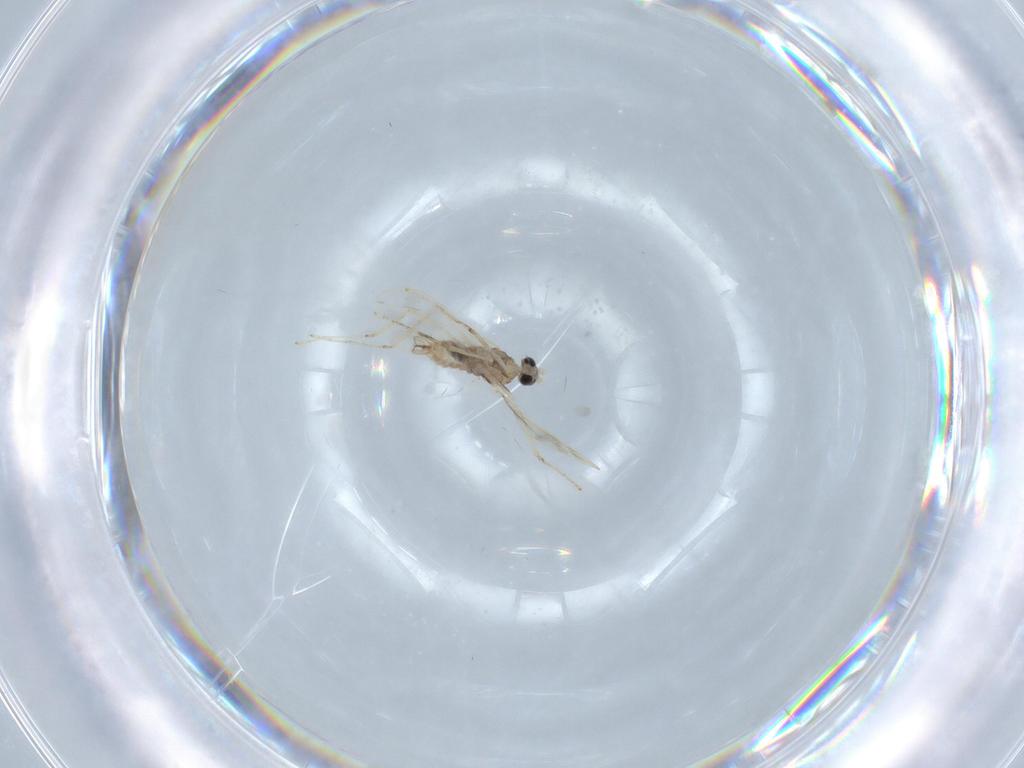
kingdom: Animalia
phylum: Arthropoda
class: Insecta
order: Diptera
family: Cecidomyiidae
